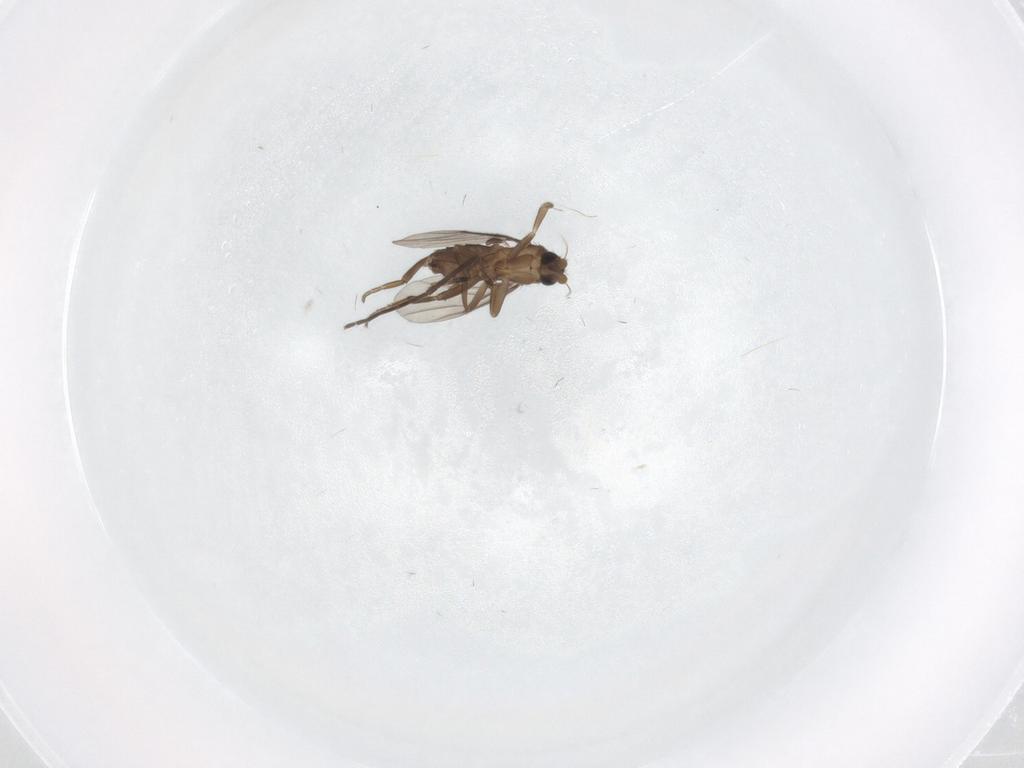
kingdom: Animalia
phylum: Arthropoda
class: Insecta
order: Diptera
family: Sciaridae
